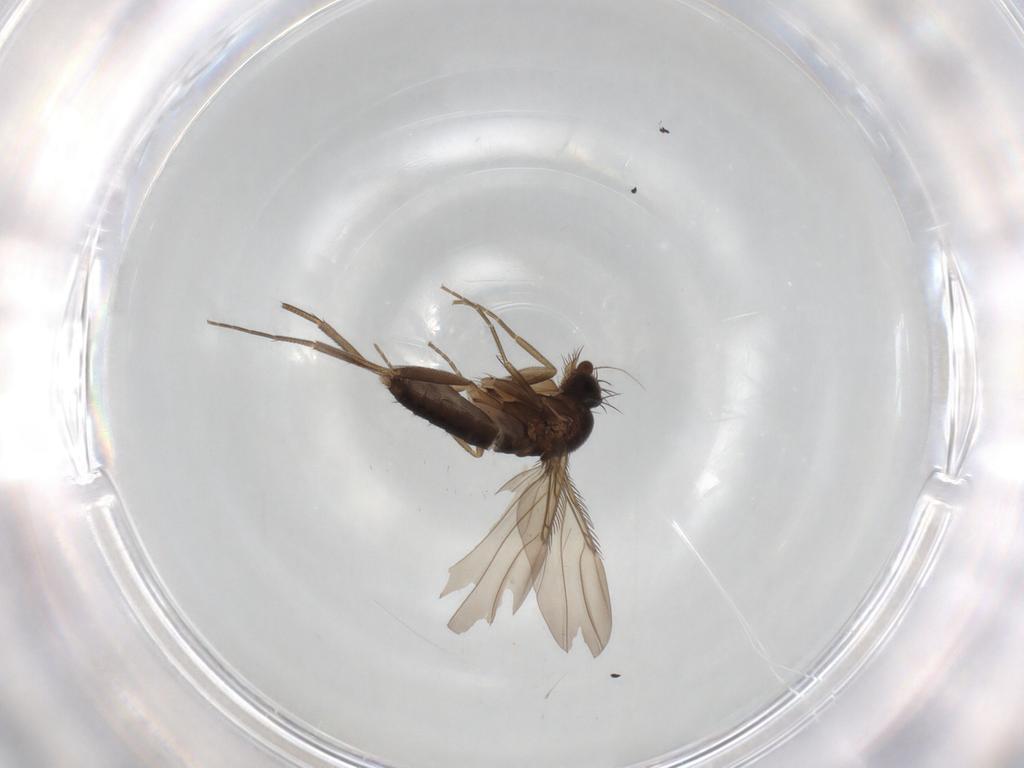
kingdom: Animalia
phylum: Arthropoda
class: Insecta
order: Diptera
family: Phoridae
